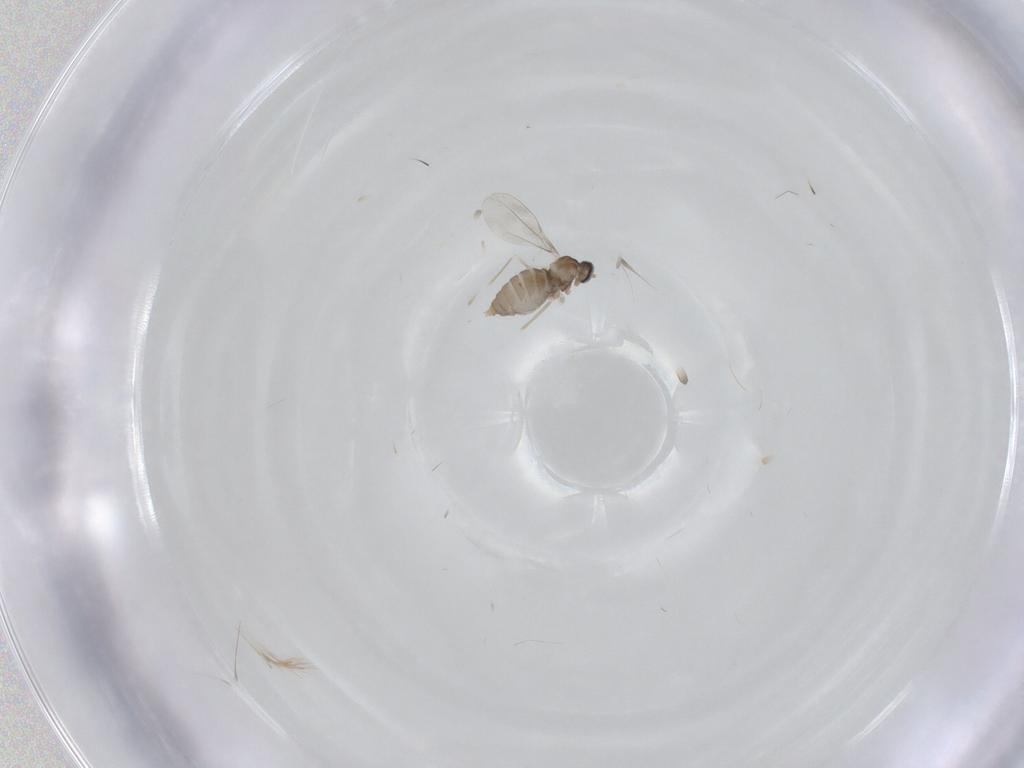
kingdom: Animalia
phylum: Arthropoda
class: Insecta
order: Diptera
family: Cecidomyiidae
